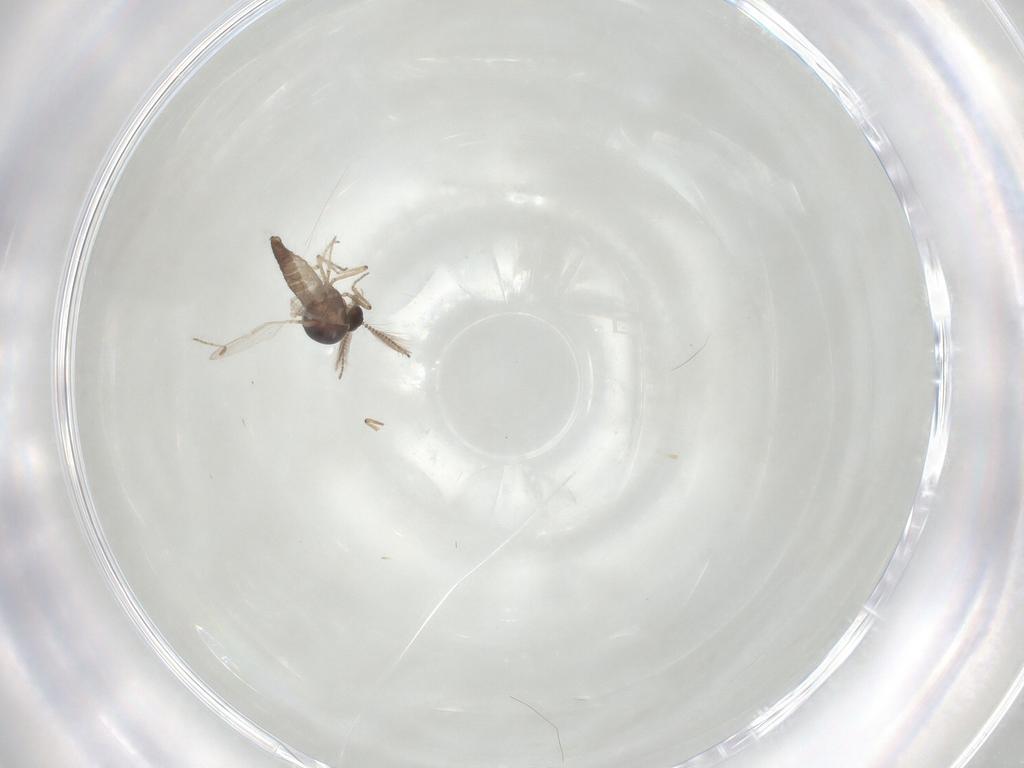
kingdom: Animalia
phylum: Arthropoda
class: Insecta
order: Diptera
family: Ceratopogonidae
